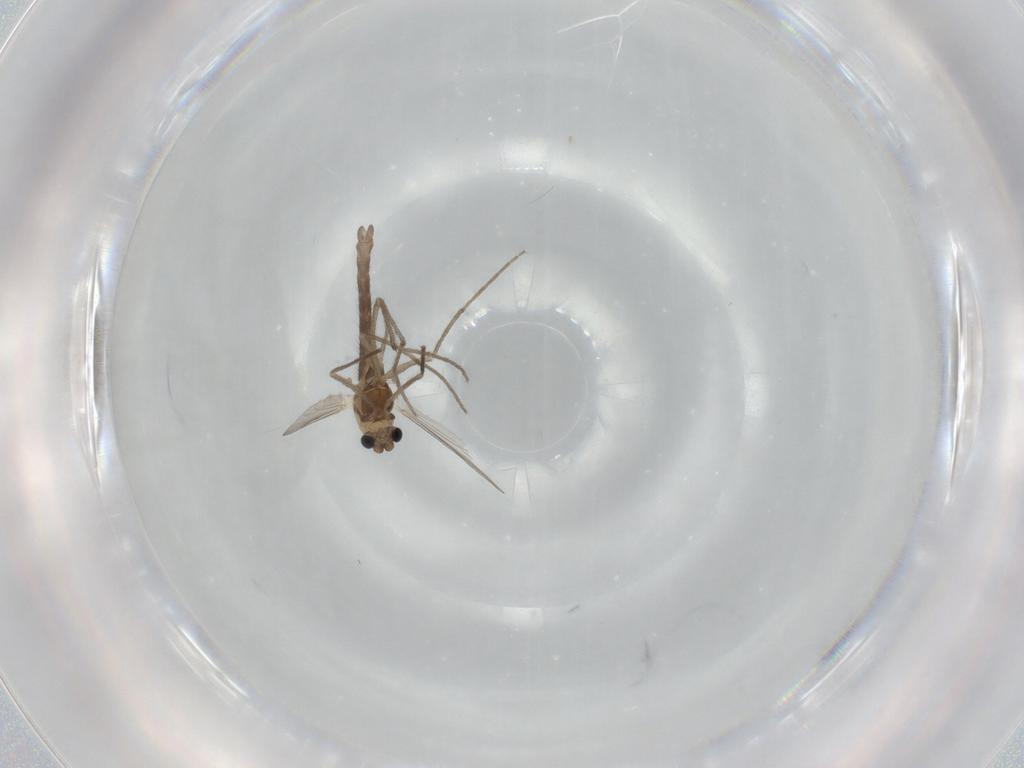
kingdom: Animalia
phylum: Arthropoda
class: Insecta
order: Diptera
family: Chironomidae
